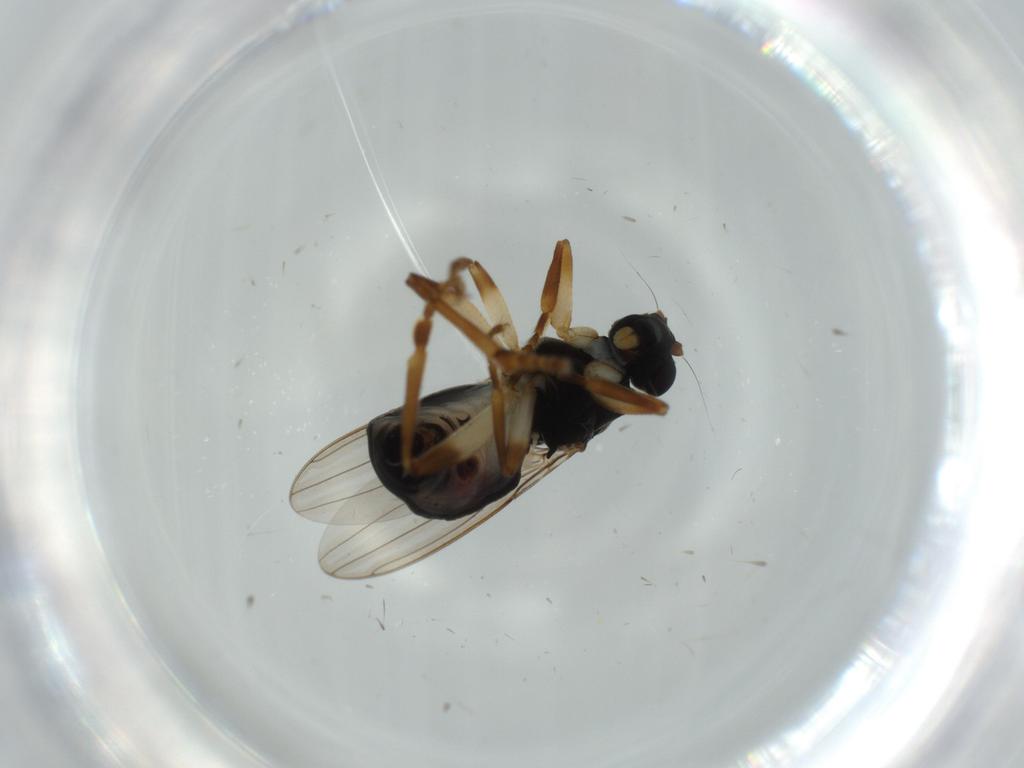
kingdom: Animalia
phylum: Arthropoda
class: Insecta
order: Diptera
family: Sphaeroceridae
